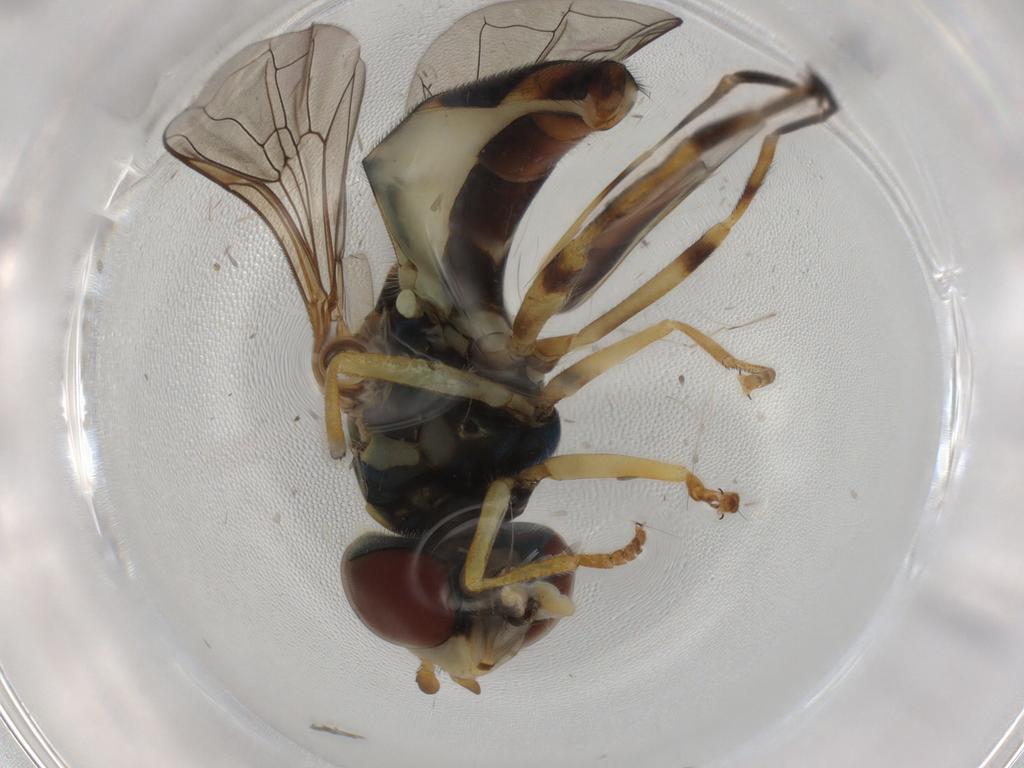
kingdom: Animalia
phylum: Arthropoda
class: Insecta
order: Diptera
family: Syrphidae
